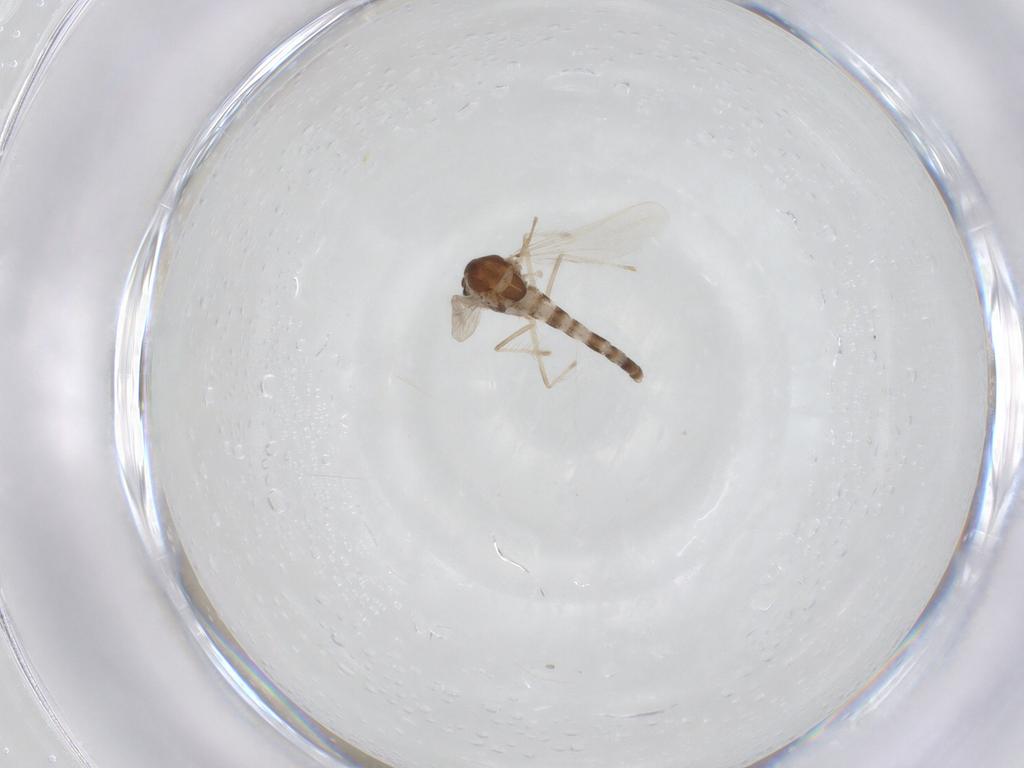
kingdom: Animalia
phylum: Arthropoda
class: Insecta
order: Diptera
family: Chironomidae
